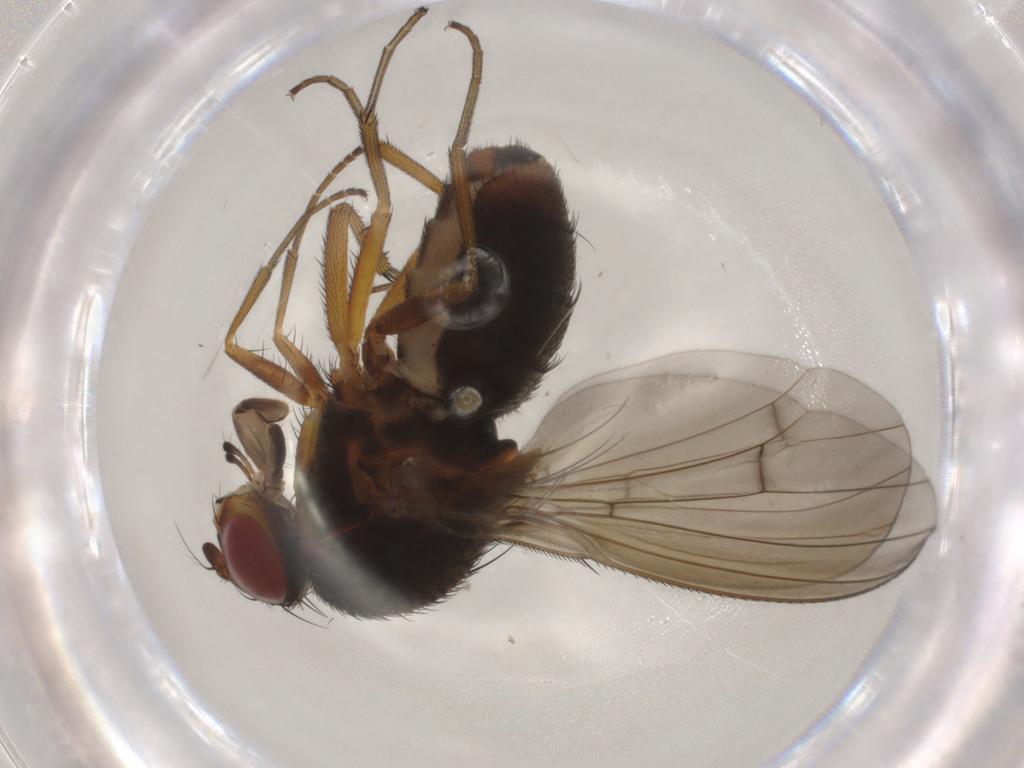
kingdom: Animalia
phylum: Arthropoda
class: Insecta
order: Diptera
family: Curtonotidae
